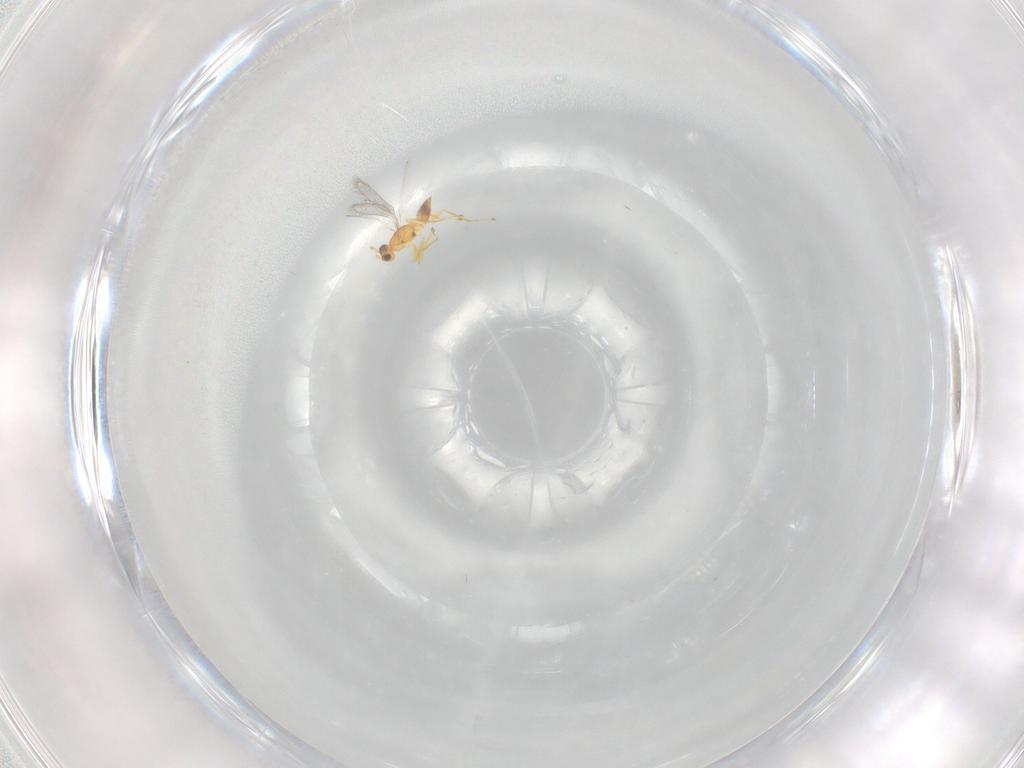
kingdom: Animalia
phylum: Arthropoda
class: Insecta
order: Hymenoptera
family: Mymaridae
